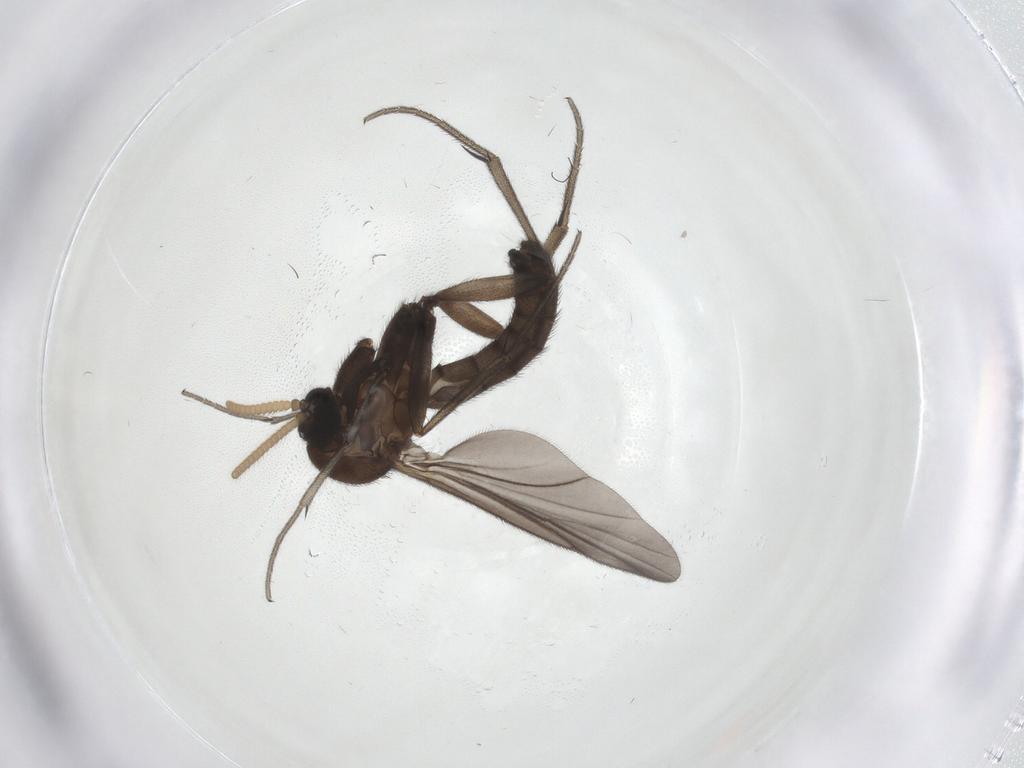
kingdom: Animalia
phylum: Arthropoda
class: Insecta
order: Diptera
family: Mycetophilidae
